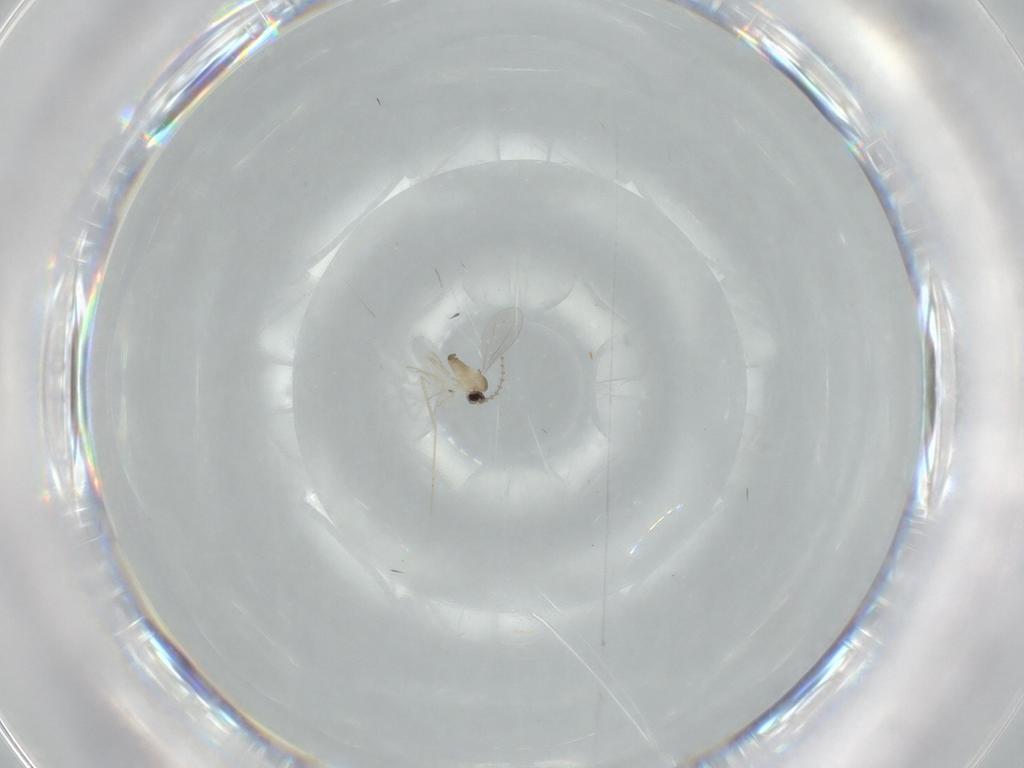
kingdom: Animalia
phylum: Arthropoda
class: Insecta
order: Diptera
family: Cecidomyiidae
